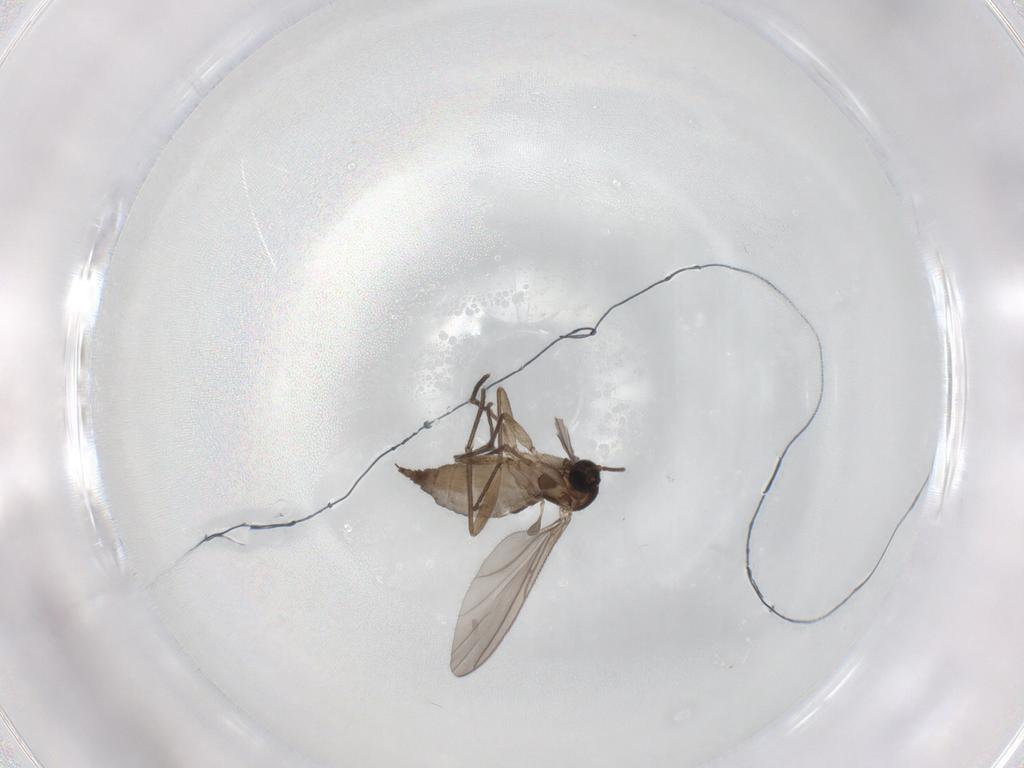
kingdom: Animalia
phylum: Arthropoda
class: Insecta
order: Diptera
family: Sciaridae
